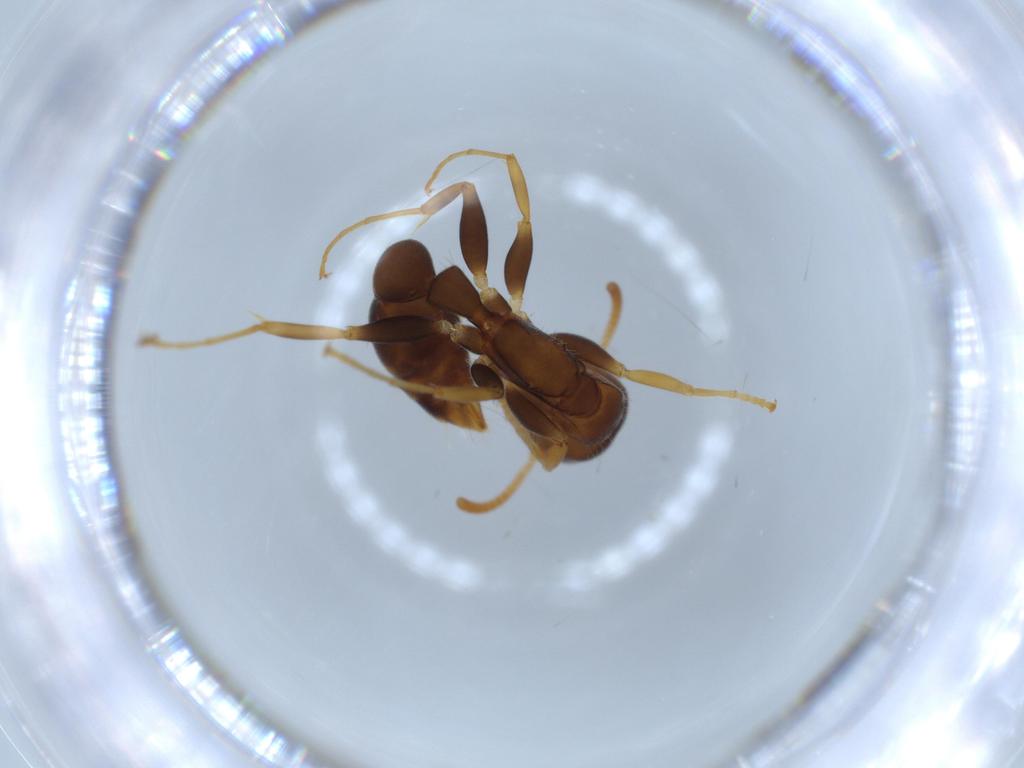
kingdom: Animalia
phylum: Arthropoda
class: Insecta
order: Hymenoptera
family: Formicidae
